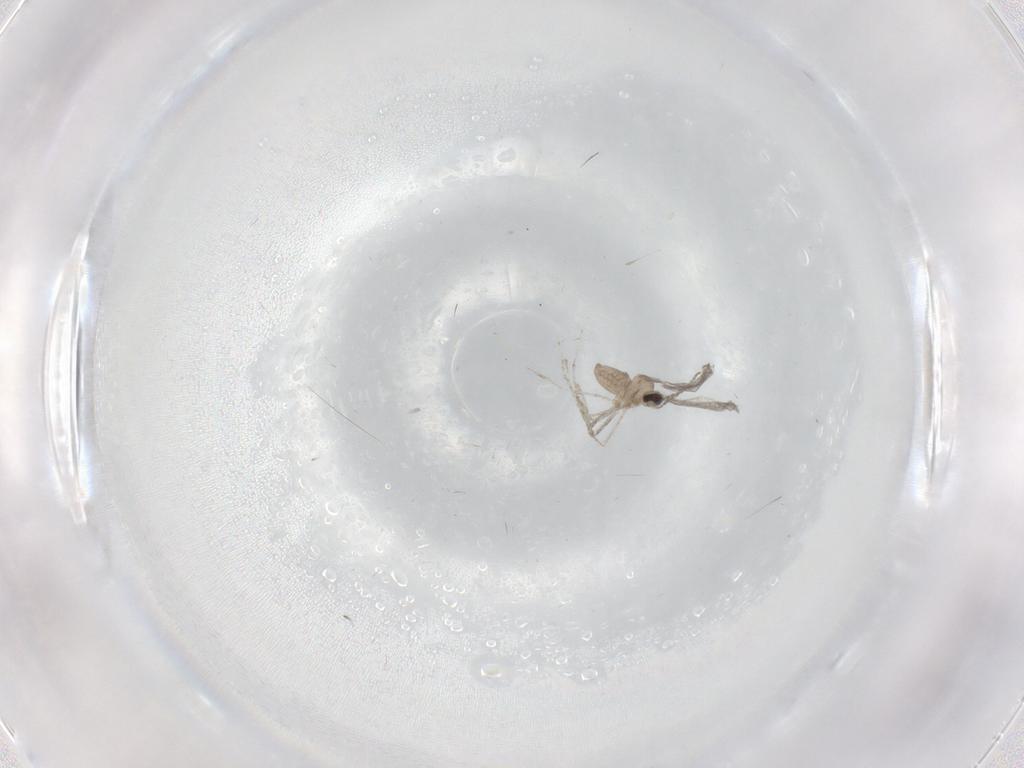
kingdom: Animalia
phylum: Arthropoda
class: Insecta
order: Diptera
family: Cecidomyiidae
